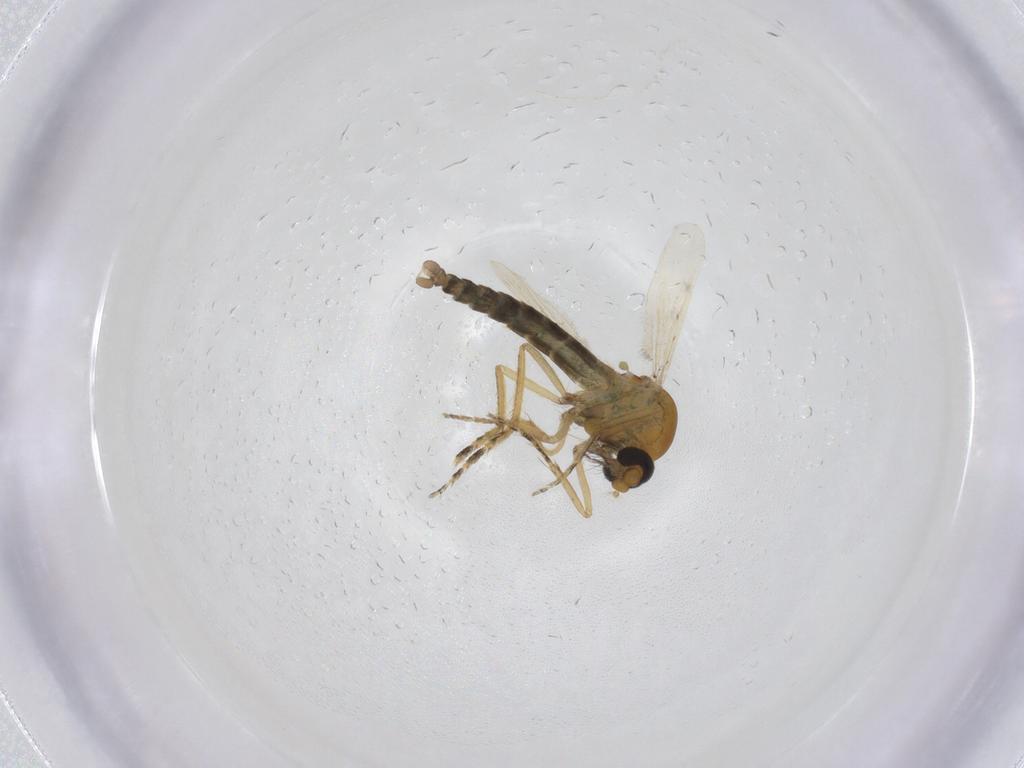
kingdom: Animalia
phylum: Arthropoda
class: Insecta
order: Diptera
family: Ceratopogonidae
